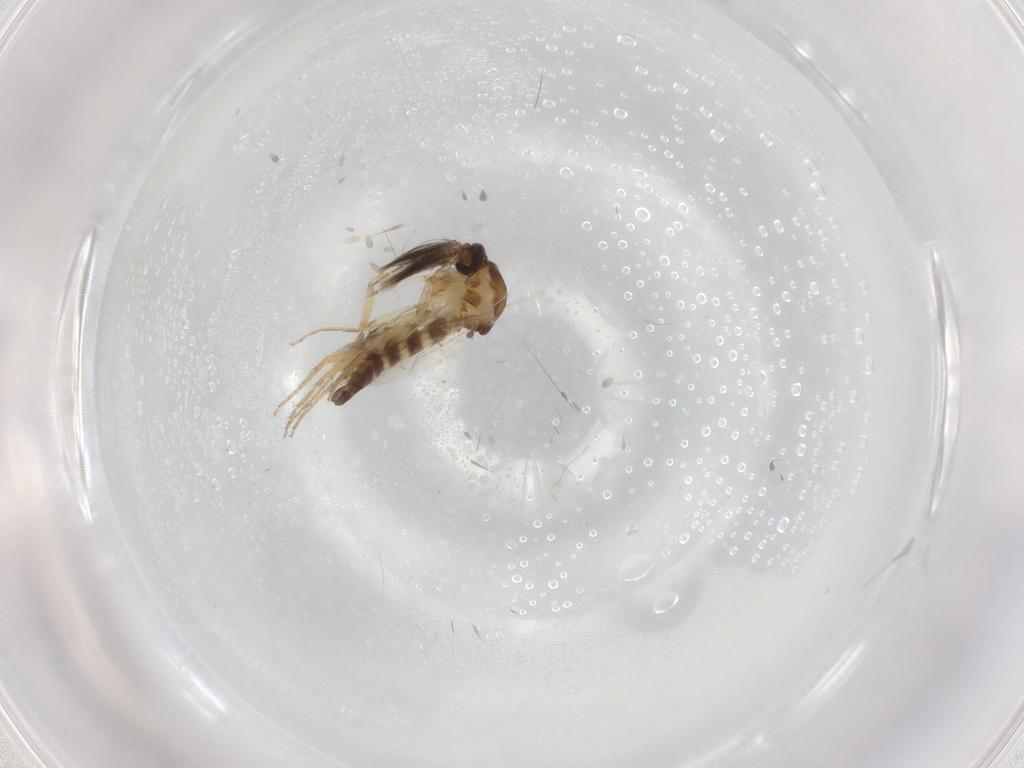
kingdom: Animalia
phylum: Arthropoda
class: Insecta
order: Diptera
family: Ceratopogonidae
